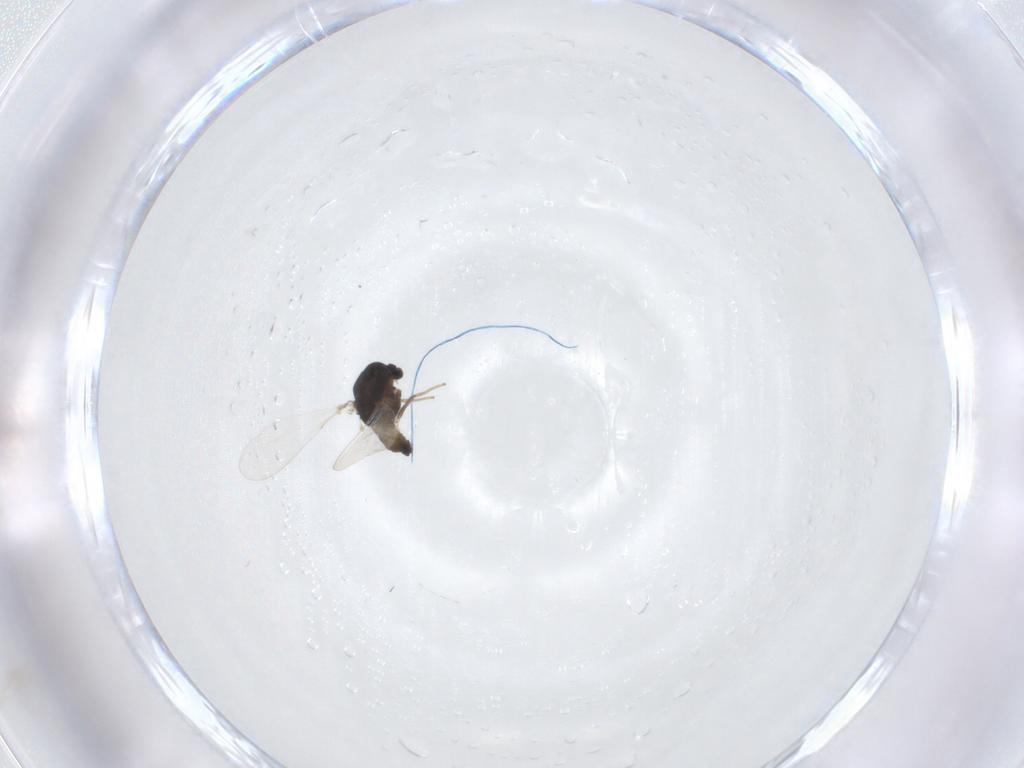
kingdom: Animalia
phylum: Arthropoda
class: Insecta
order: Diptera
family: Chironomidae
